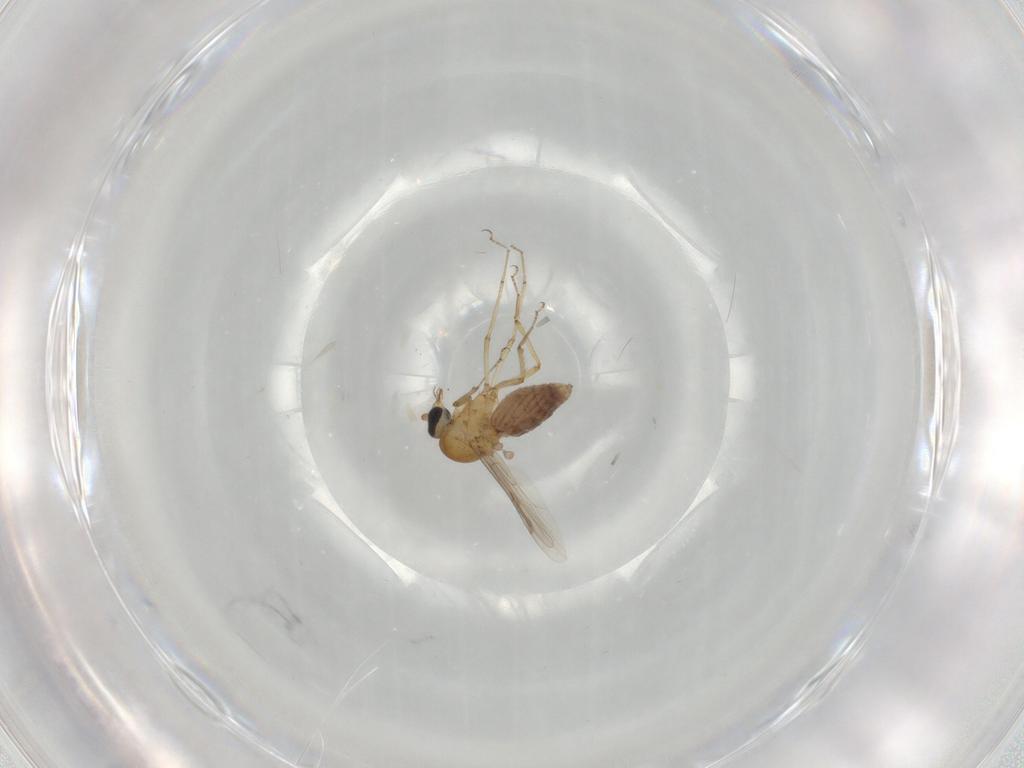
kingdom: Animalia
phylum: Arthropoda
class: Insecta
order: Diptera
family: Ceratopogonidae
